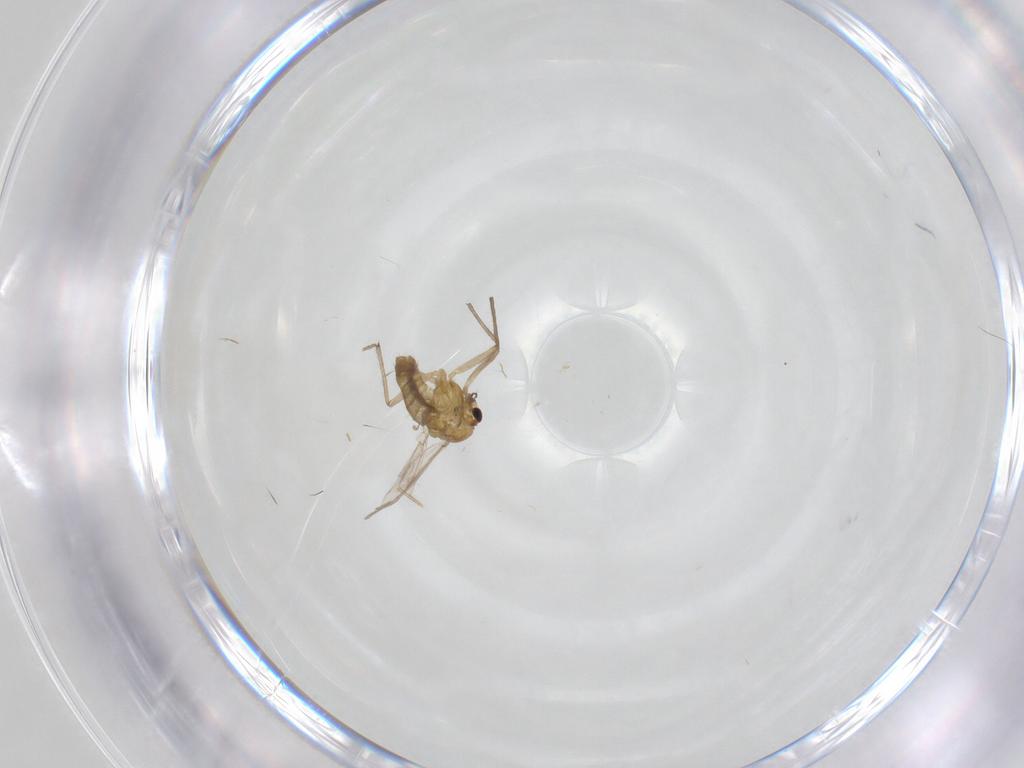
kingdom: Animalia
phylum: Arthropoda
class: Insecta
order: Diptera
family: Chironomidae
